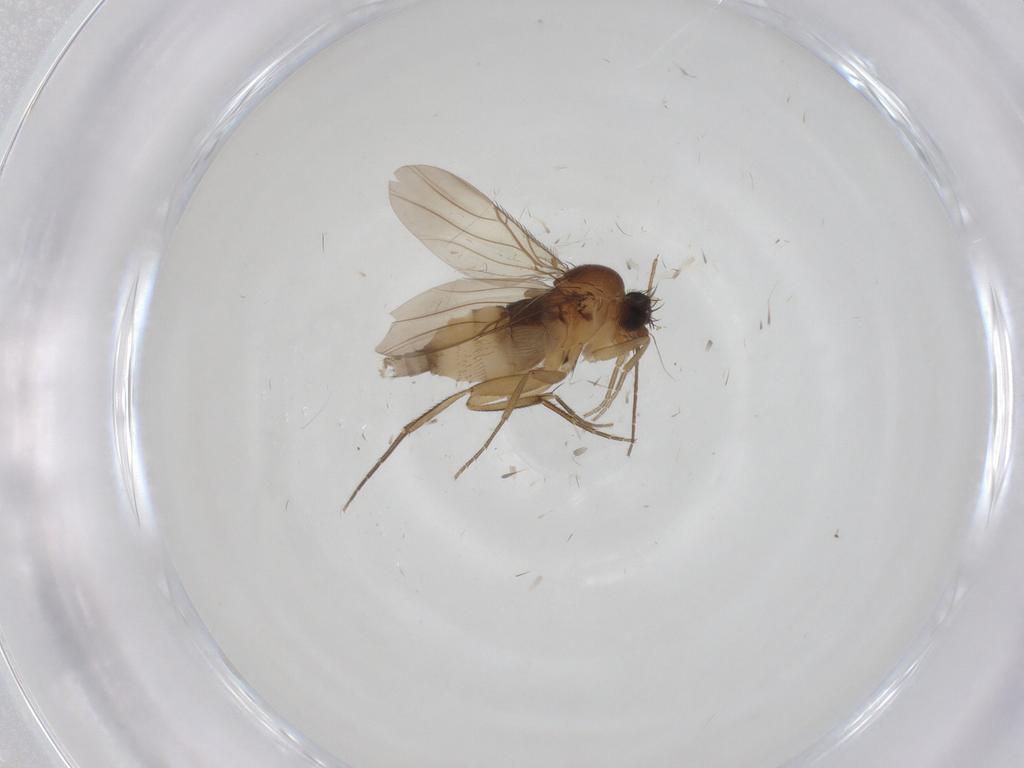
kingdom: Animalia
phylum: Arthropoda
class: Insecta
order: Diptera
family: Phoridae
